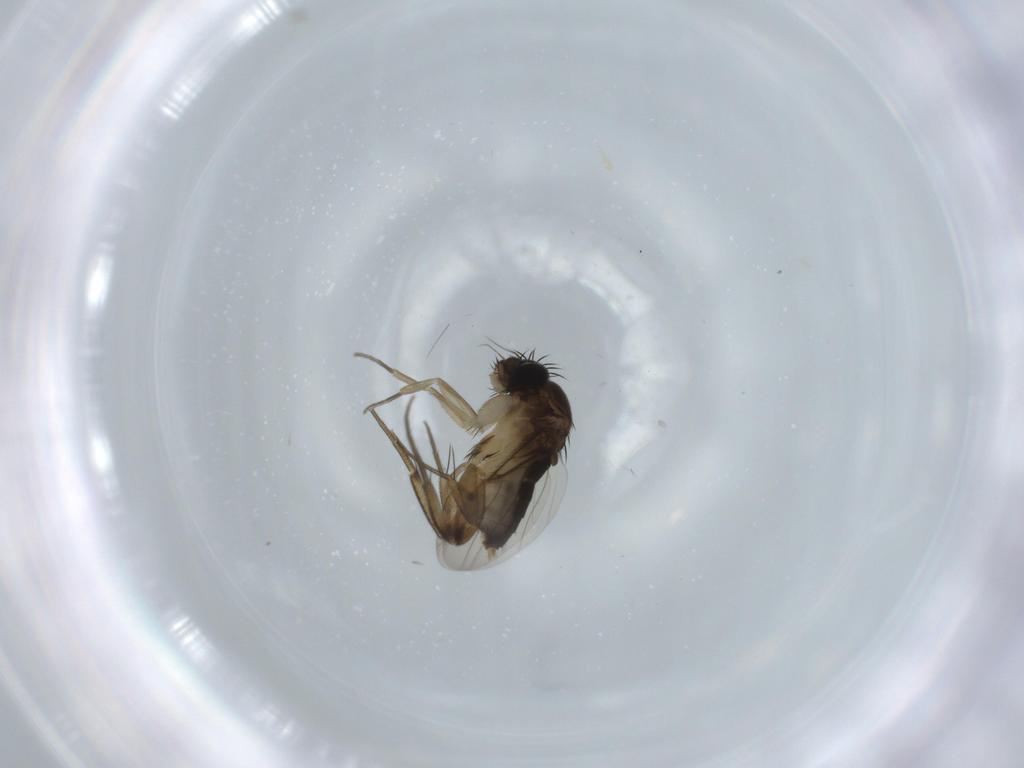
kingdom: Animalia
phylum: Arthropoda
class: Insecta
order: Diptera
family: Phoridae
